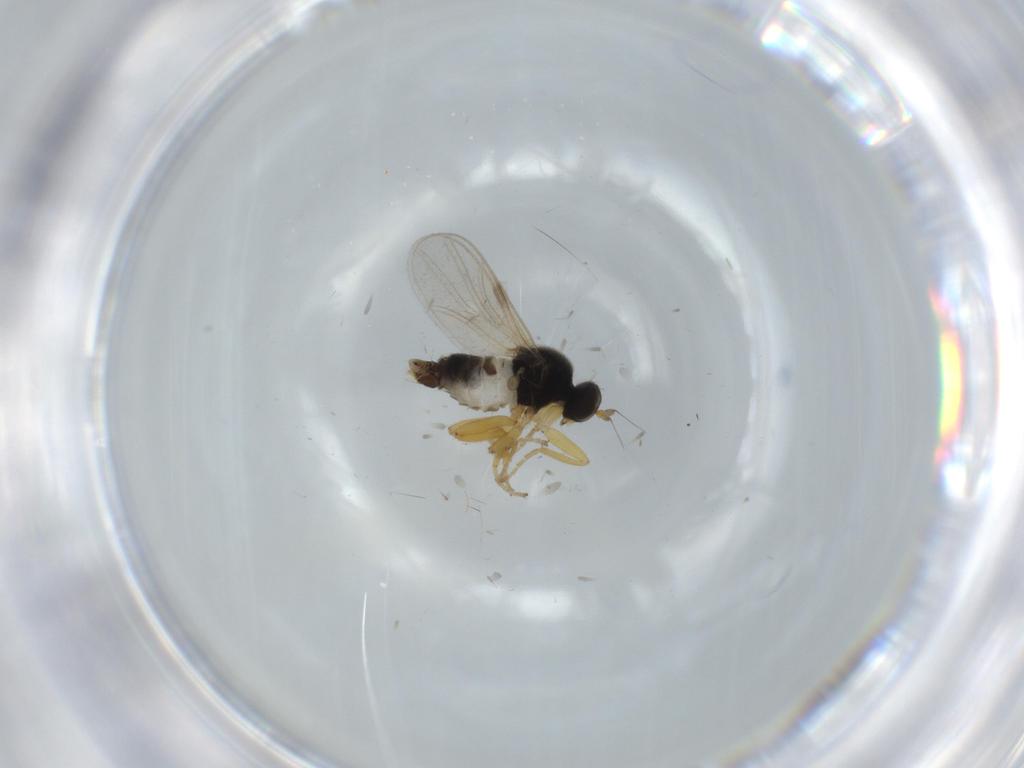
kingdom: Animalia
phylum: Arthropoda
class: Insecta
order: Diptera
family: Hybotidae
